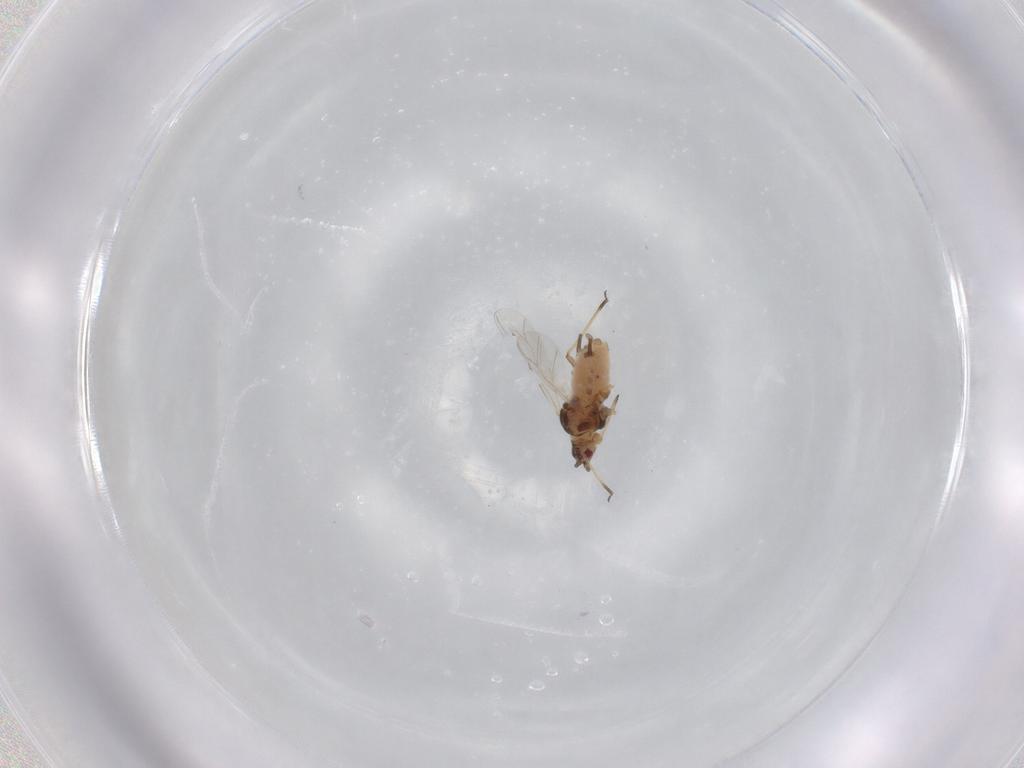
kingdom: Animalia
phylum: Arthropoda
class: Insecta
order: Hemiptera
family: Aphididae
